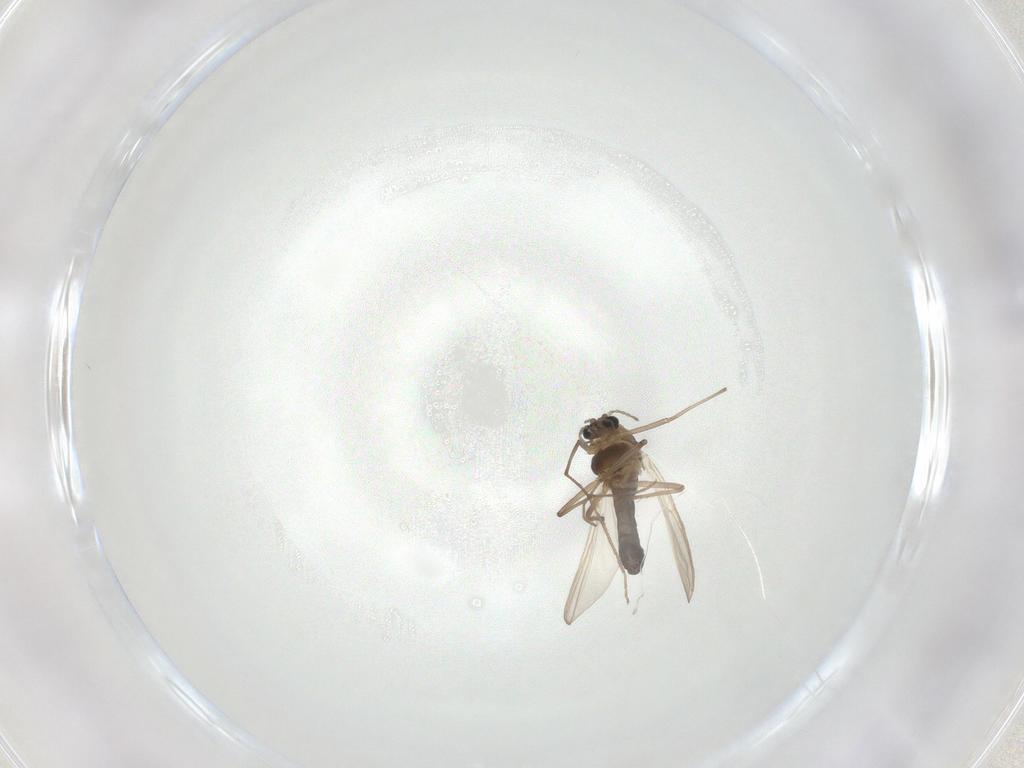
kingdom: Animalia
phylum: Arthropoda
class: Insecta
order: Diptera
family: Chironomidae
